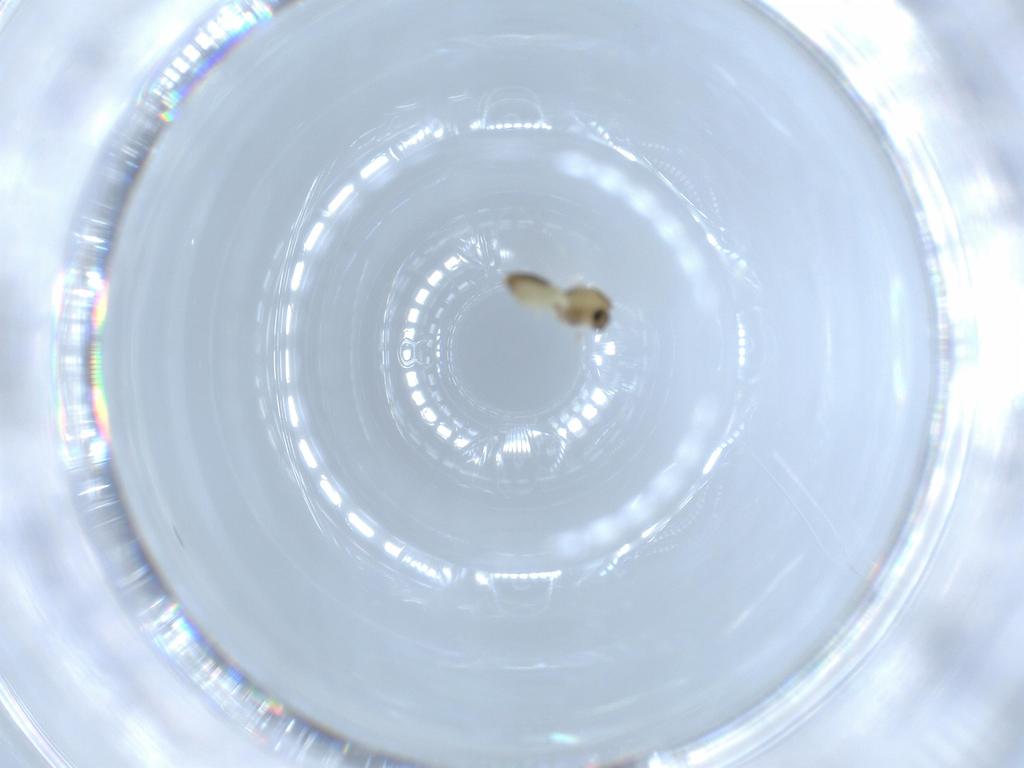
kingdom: Animalia
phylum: Arthropoda
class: Insecta
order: Diptera
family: Chironomidae
